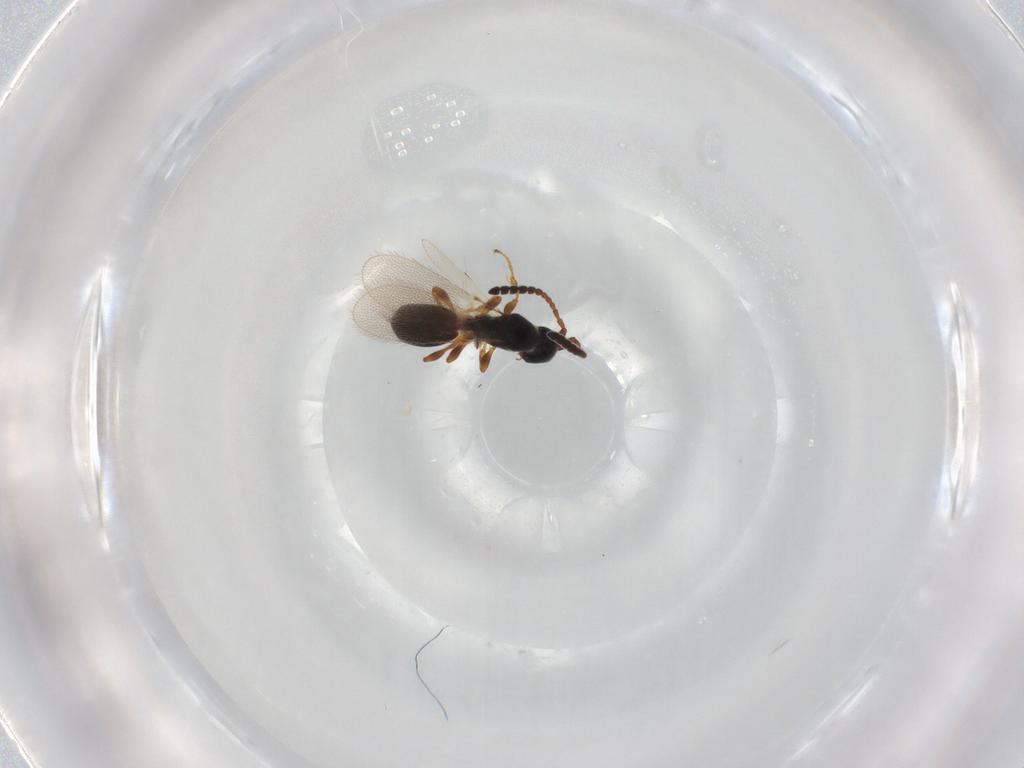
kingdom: Animalia
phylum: Arthropoda
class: Insecta
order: Hymenoptera
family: Diapriidae
